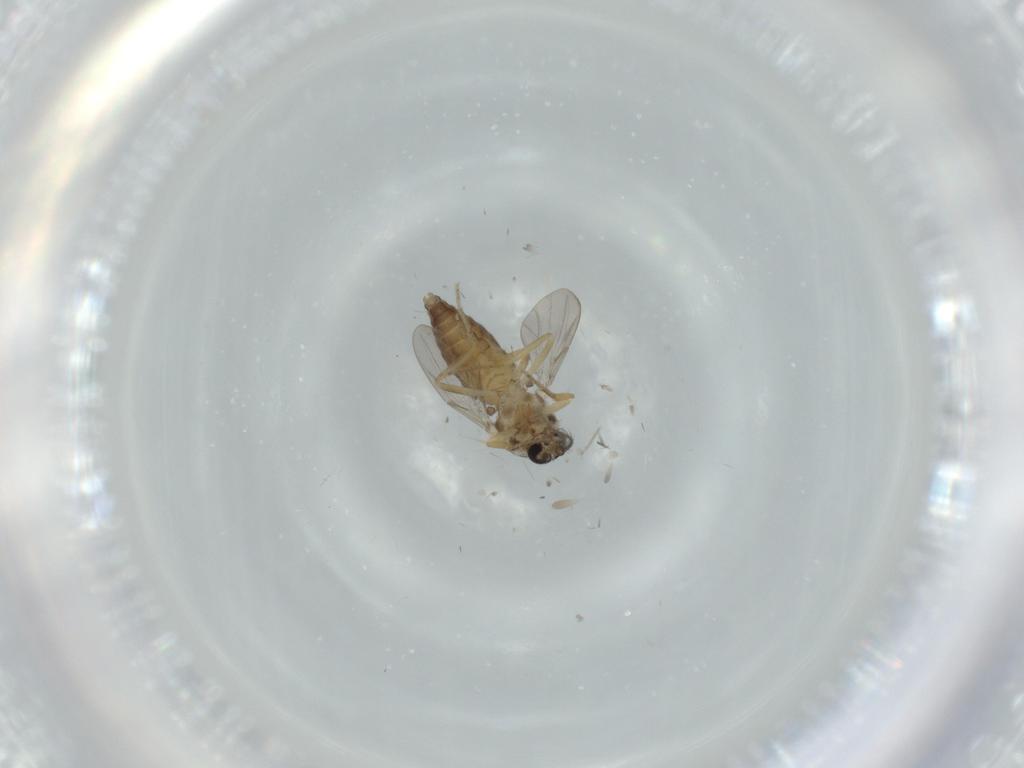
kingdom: Animalia
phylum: Arthropoda
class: Insecta
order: Diptera
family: Ceratopogonidae
